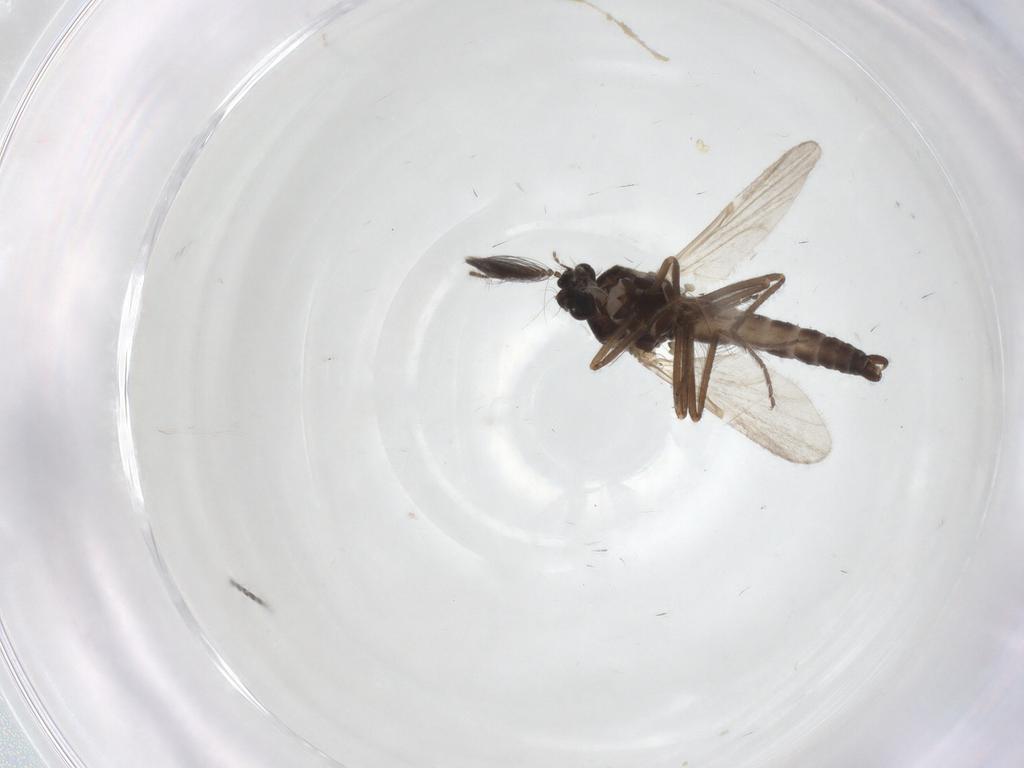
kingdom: Animalia
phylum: Arthropoda
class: Insecta
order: Diptera
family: Ceratopogonidae
